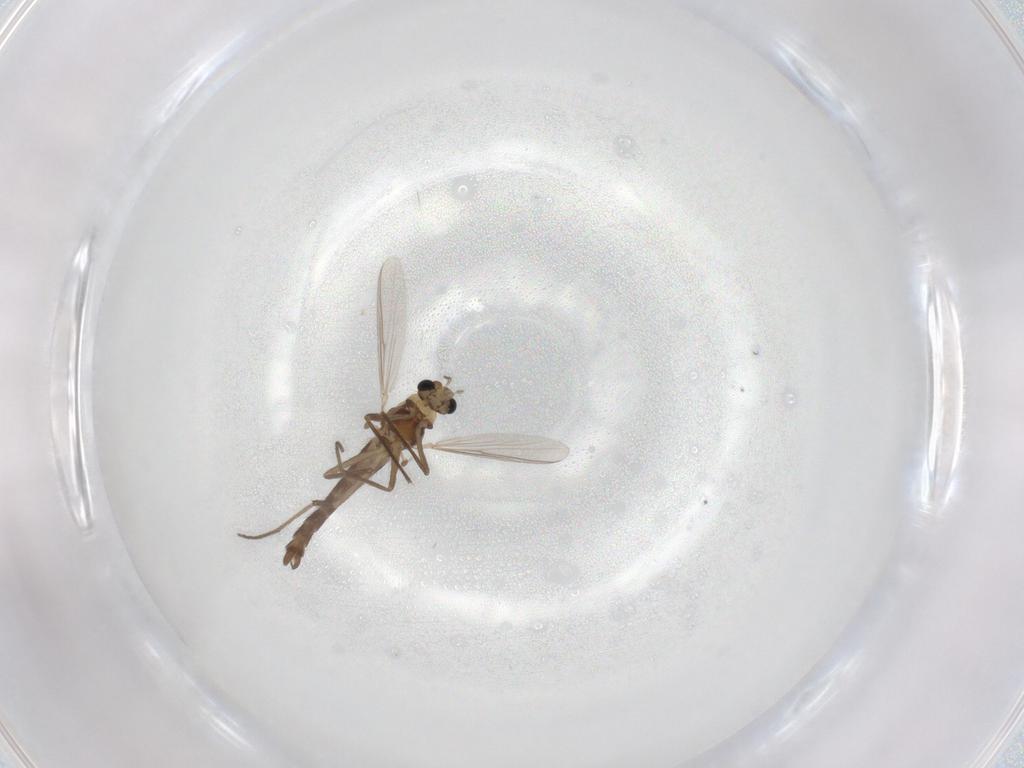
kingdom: Animalia
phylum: Arthropoda
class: Insecta
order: Diptera
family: Chironomidae
